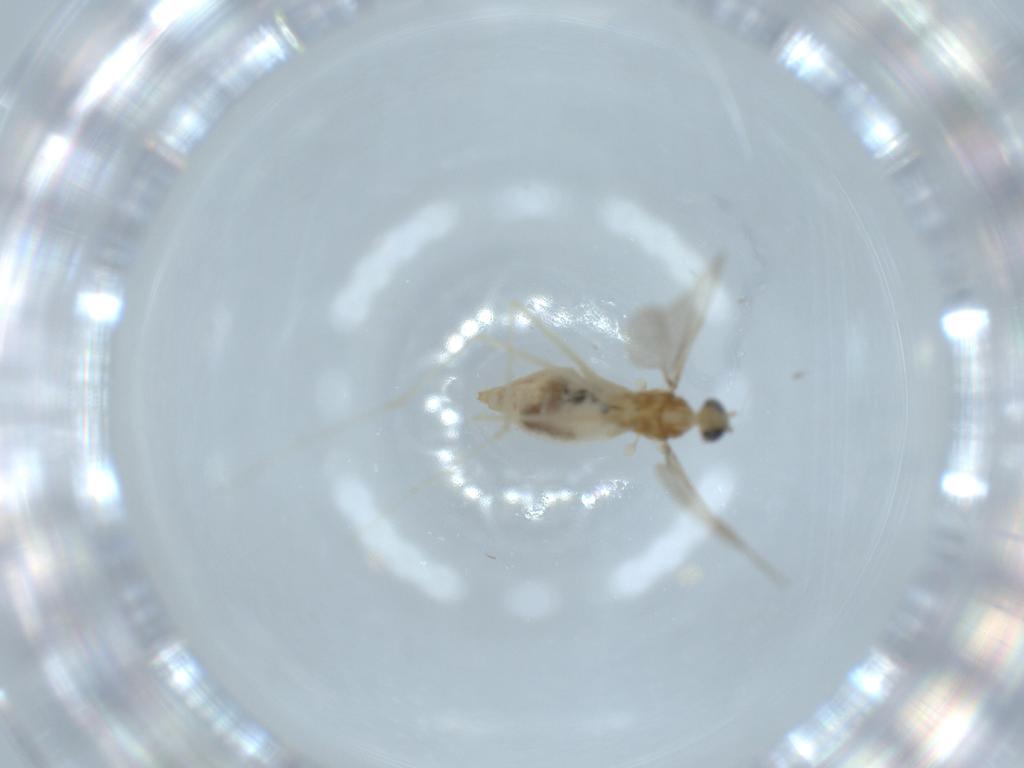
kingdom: Animalia
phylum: Arthropoda
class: Insecta
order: Diptera
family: Cecidomyiidae
